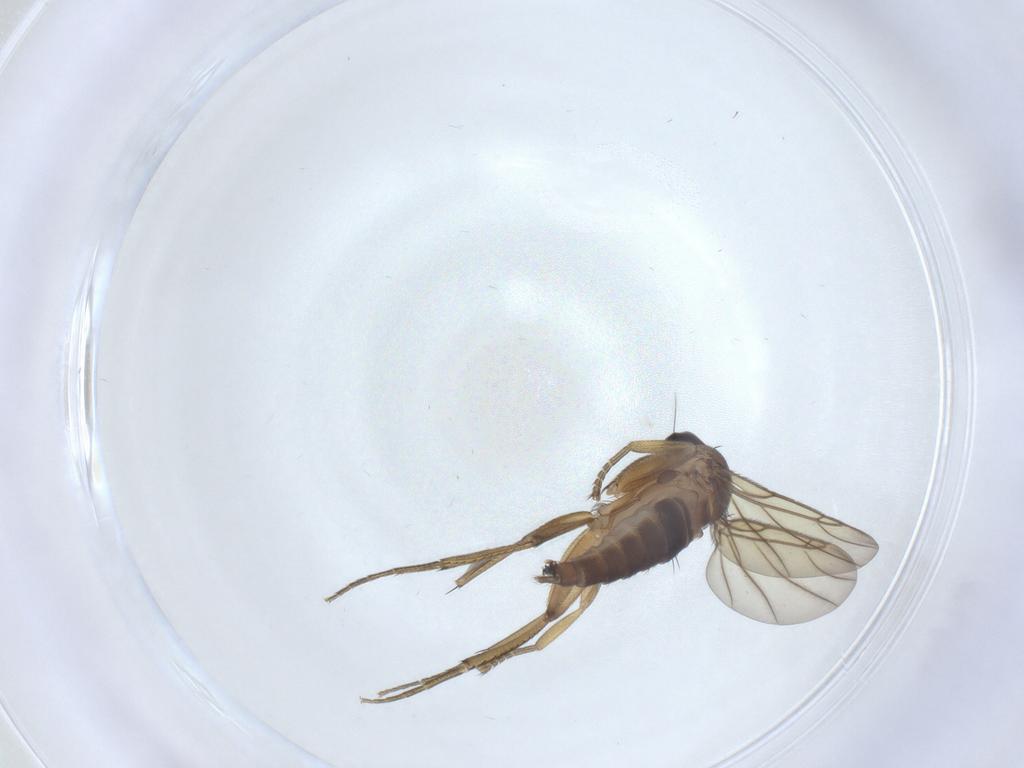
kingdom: Animalia
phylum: Arthropoda
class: Insecta
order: Diptera
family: Phoridae
